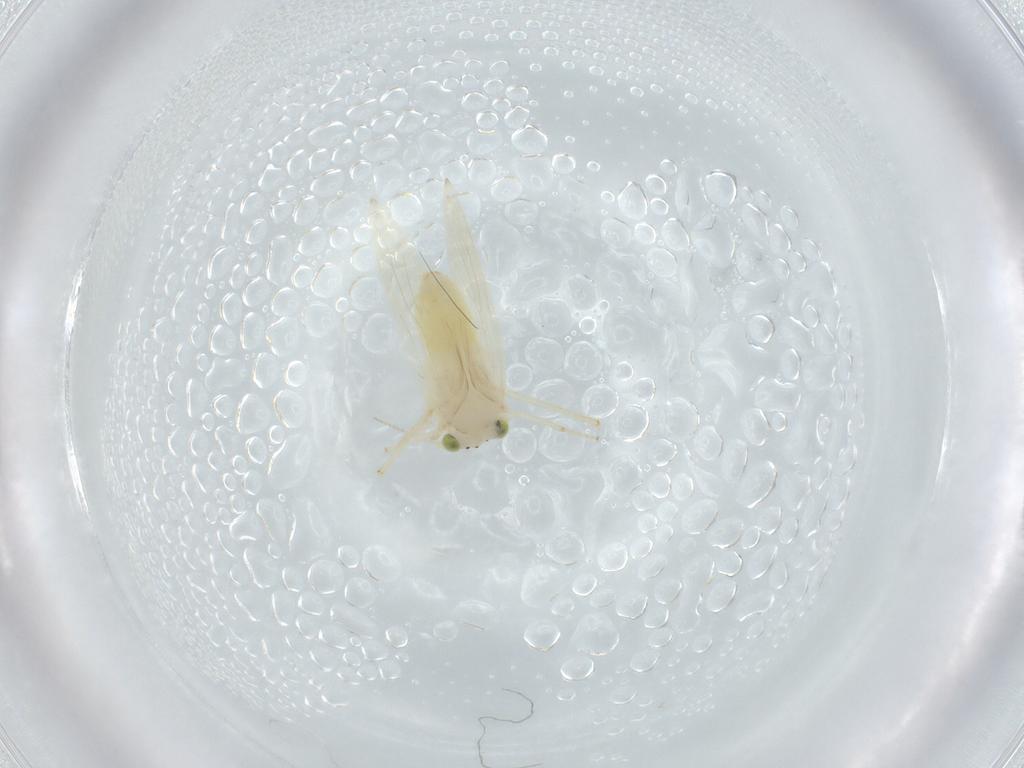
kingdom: Animalia
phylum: Arthropoda
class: Insecta
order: Psocodea
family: Lepidopsocidae
